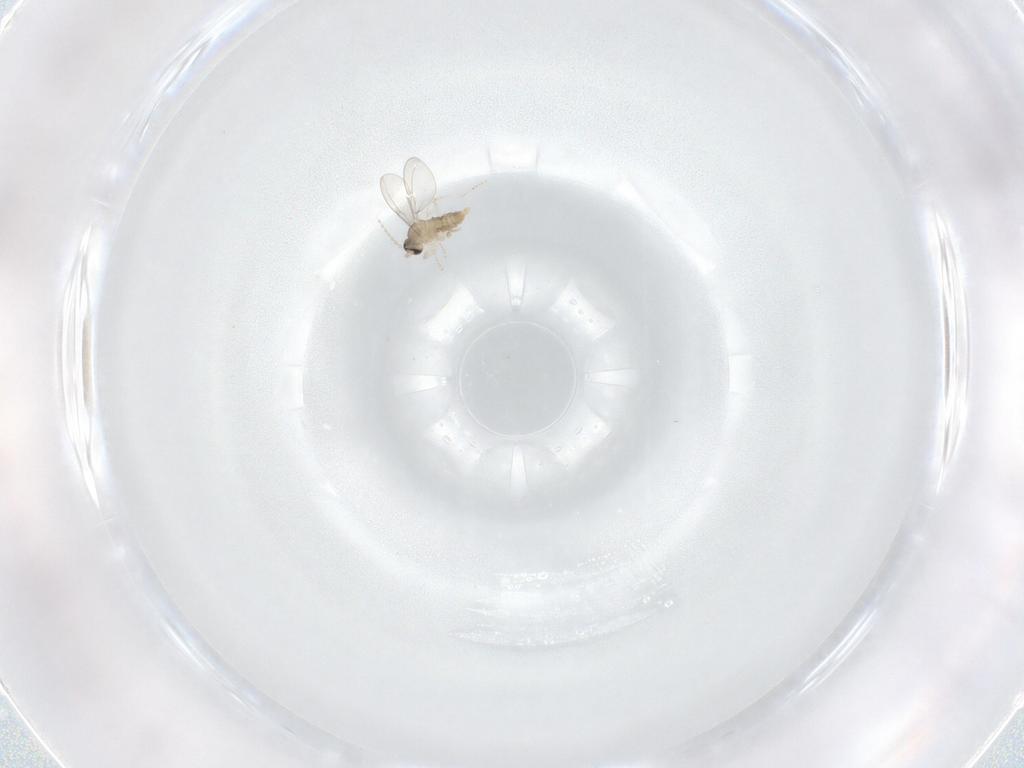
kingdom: Animalia
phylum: Arthropoda
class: Insecta
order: Diptera
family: Cecidomyiidae
